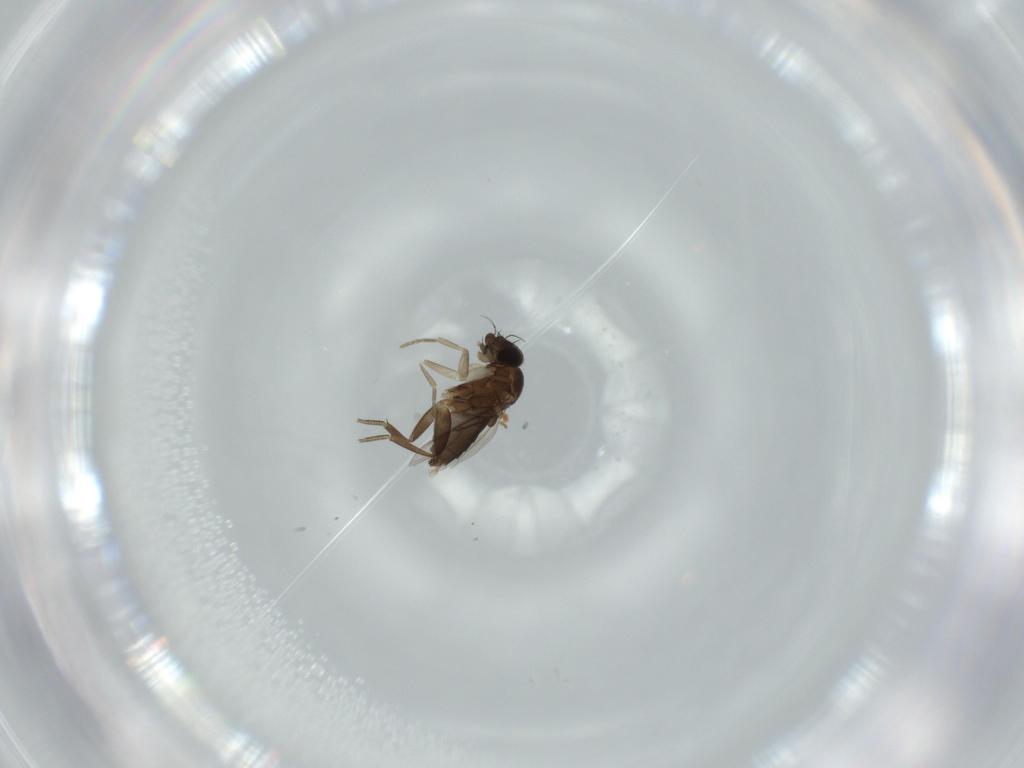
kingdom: Animalia
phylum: Arthropoda
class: Insecta
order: Diptera
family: Phoridae
